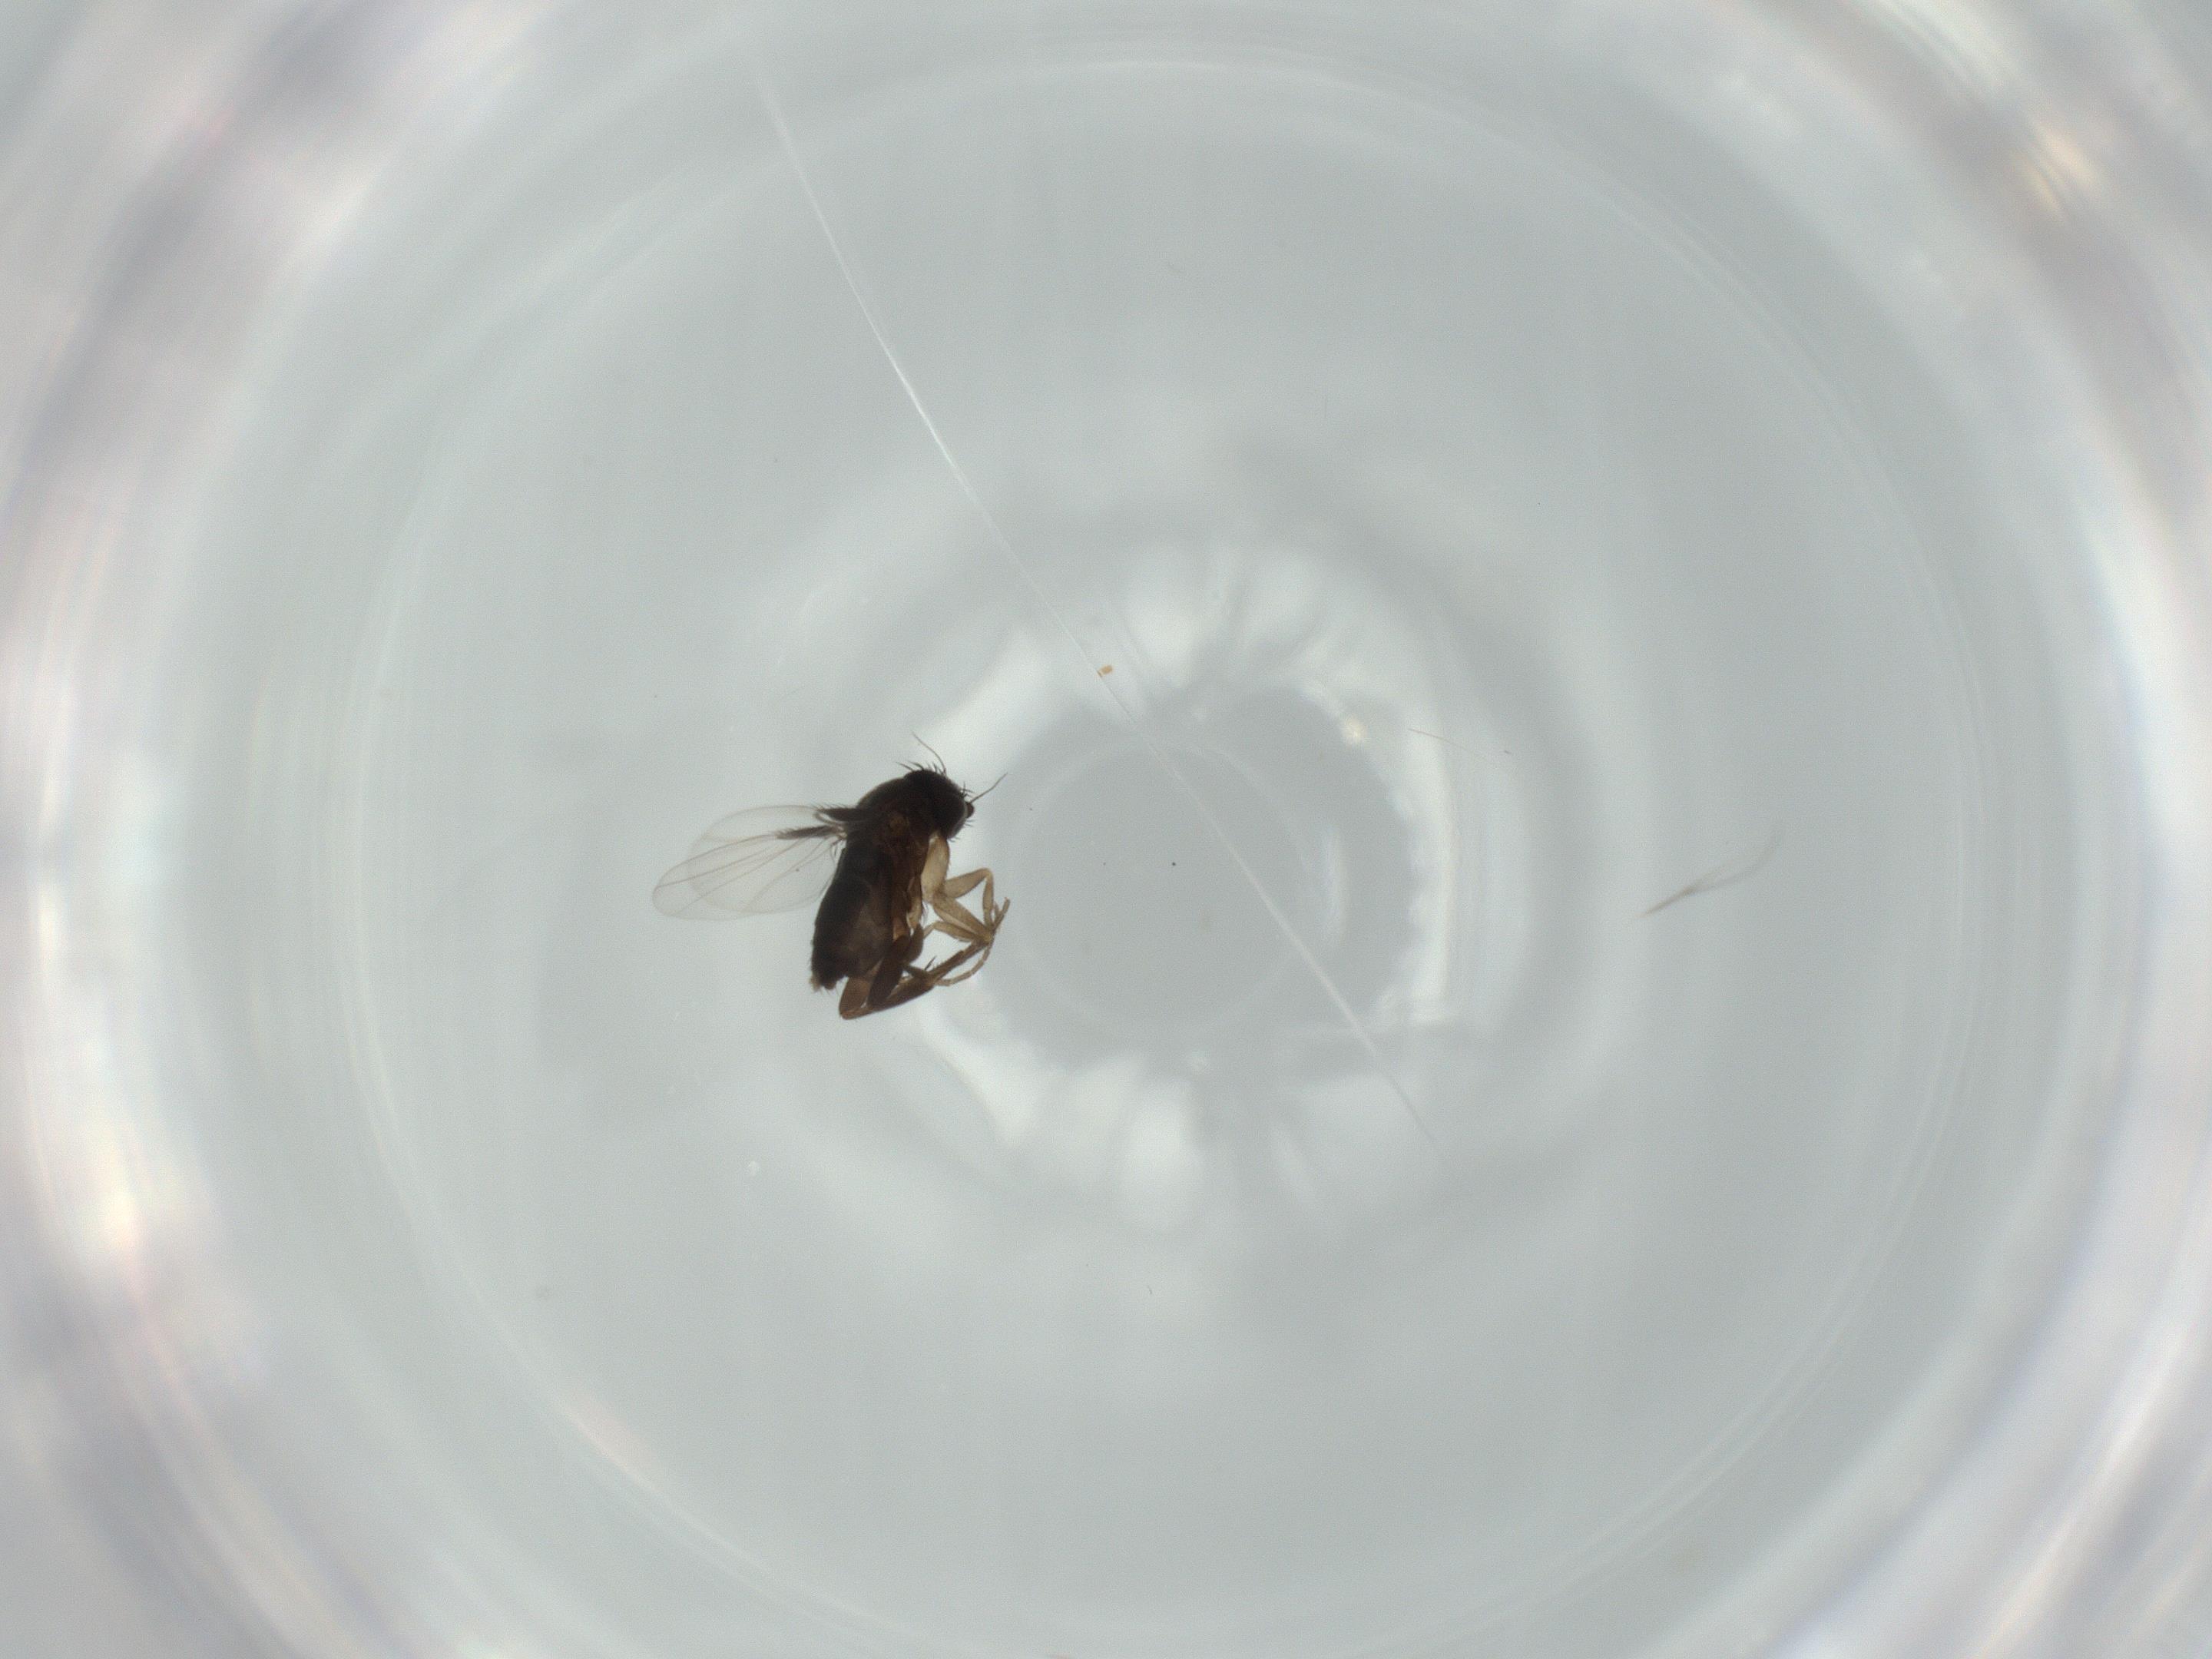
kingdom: Animalia
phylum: Arthropoda
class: Insecta
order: Diptera
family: Phoridae
